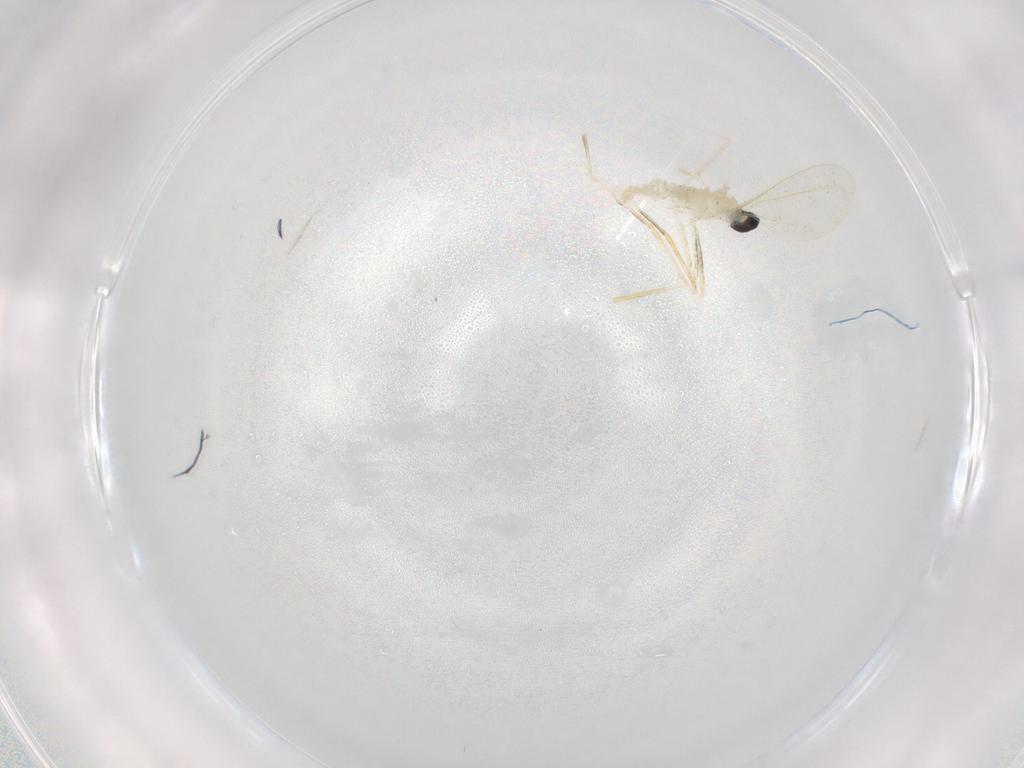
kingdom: Animalia
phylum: Arthropoda
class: Insecta
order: Diptera
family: Cecidomyiidae
